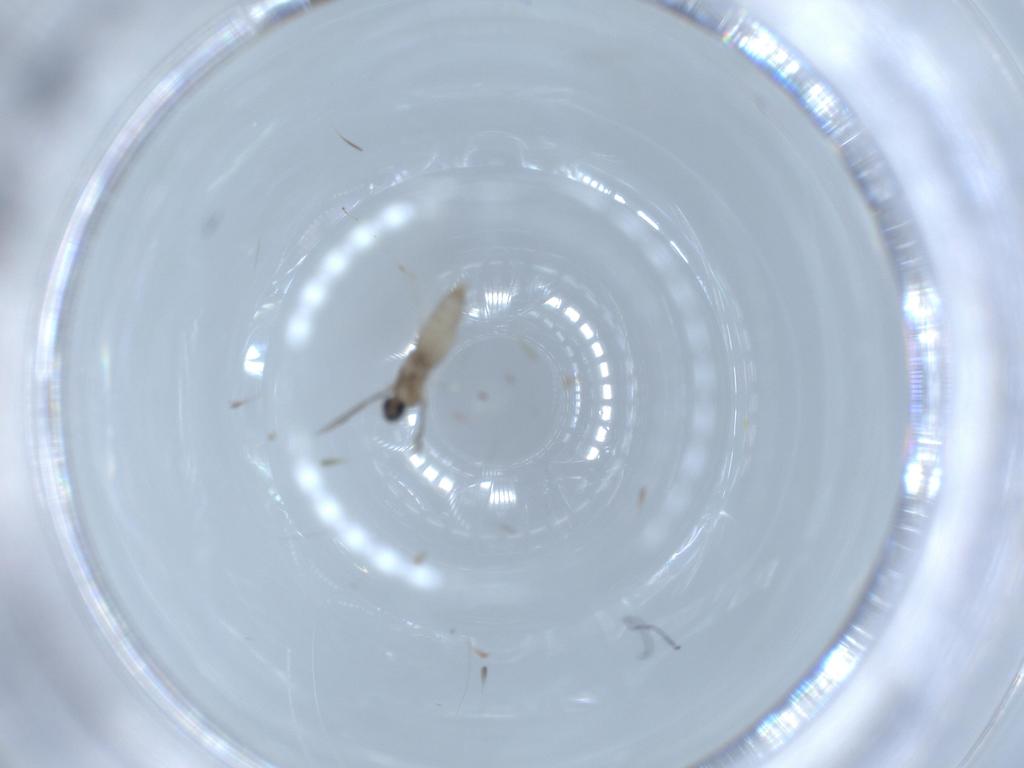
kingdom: Animalia
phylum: Arthropoda
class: Insecta
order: Diptera
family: Cecidomyiidae
